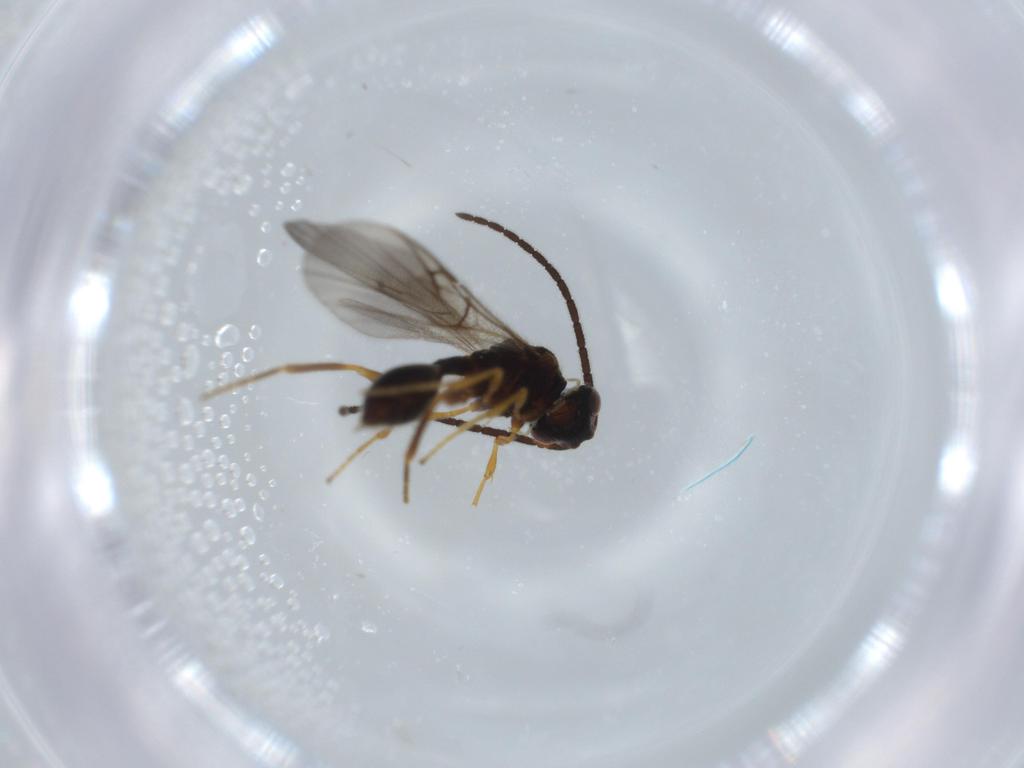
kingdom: Animalia
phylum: Arthropoda
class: Insecta
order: Hymenoptera
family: Diapriidae
